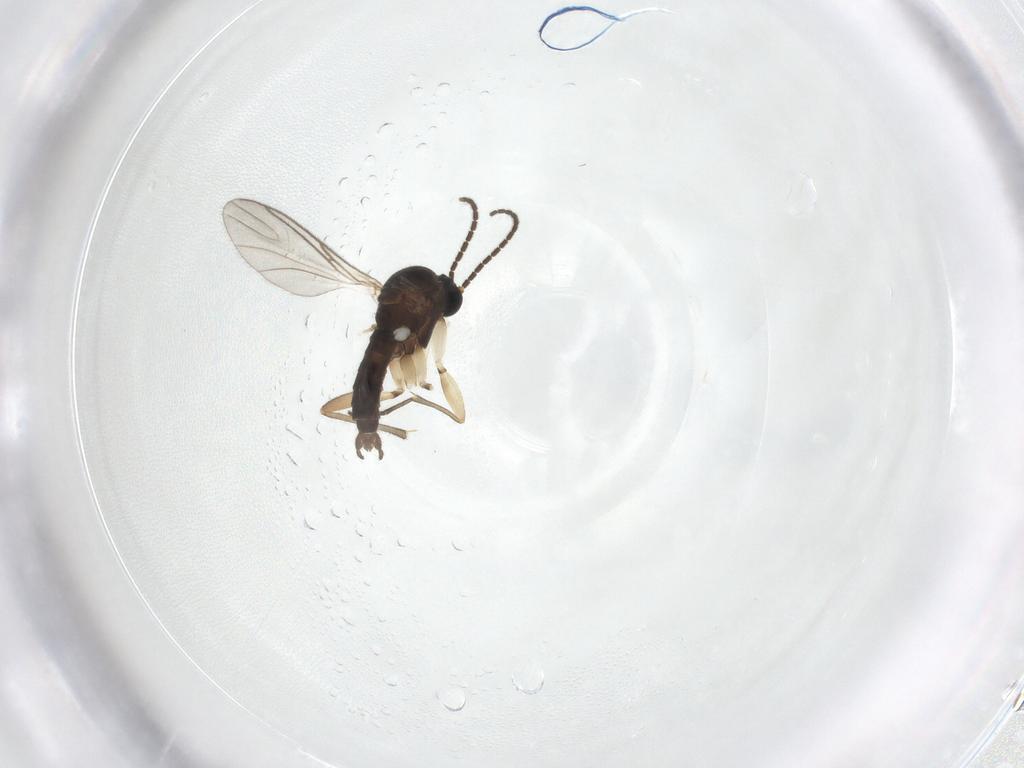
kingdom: Animalia
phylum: Arthropoda
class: Insecta
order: Diptera
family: Sciaridae
